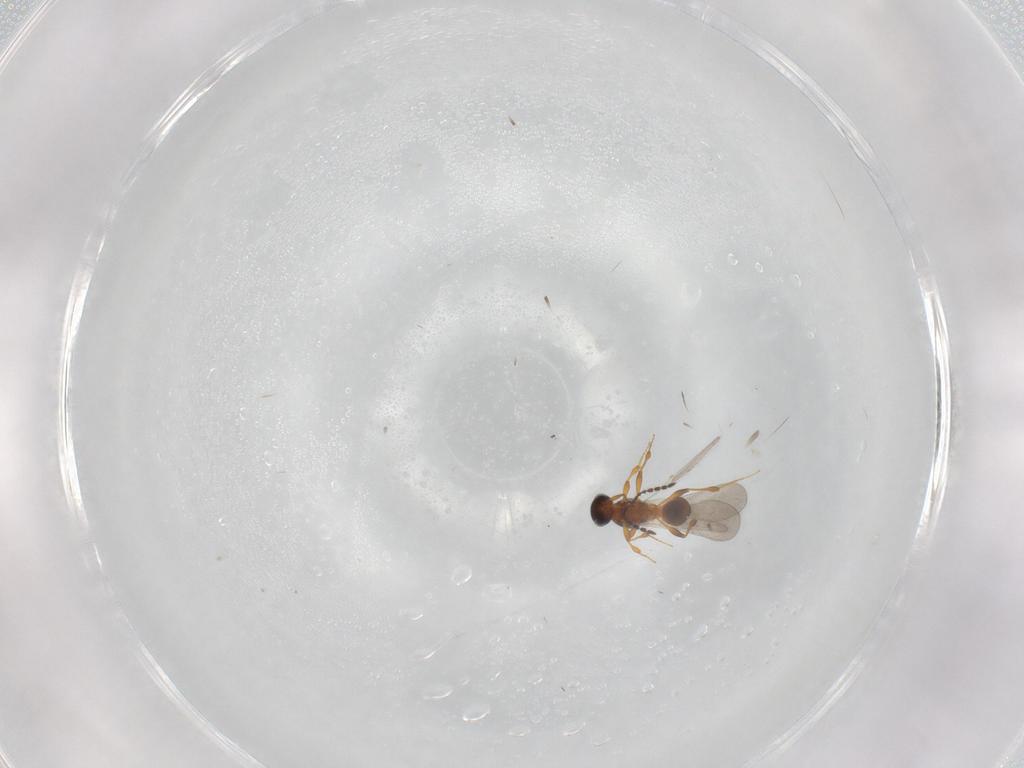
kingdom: Animalia
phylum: Arthropoda
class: Insecta
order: Hymenoptera
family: Platygastridae
